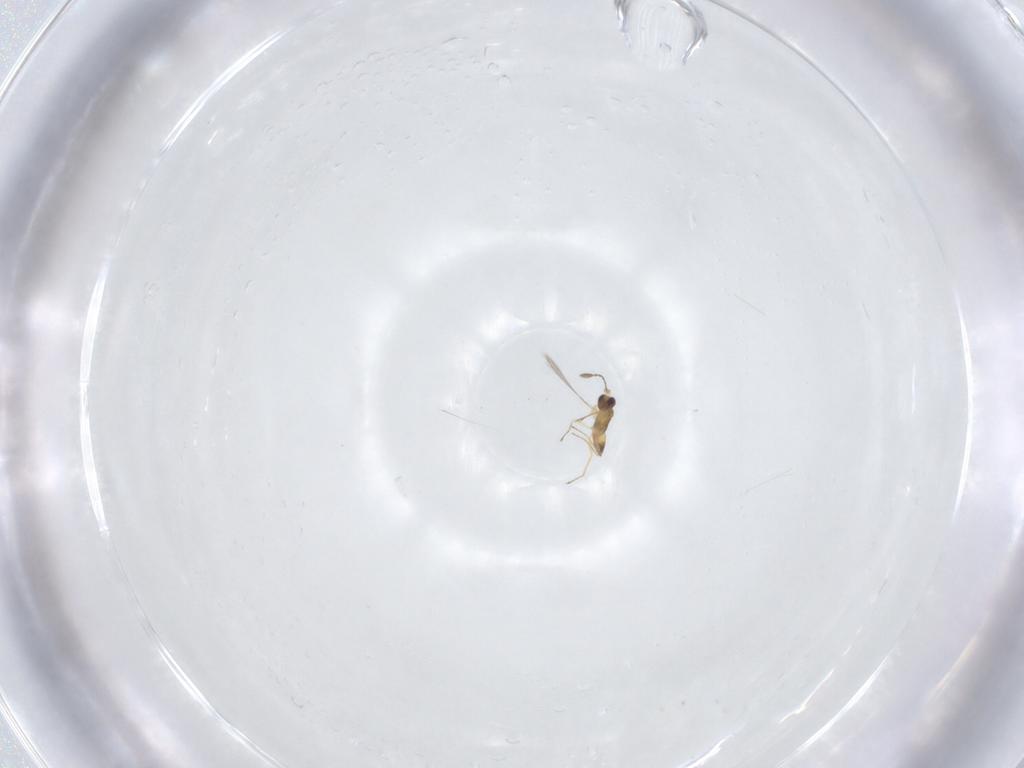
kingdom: Animalia
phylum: Arthropoda
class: Insecta
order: Hymenoptera
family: Mymaridae
